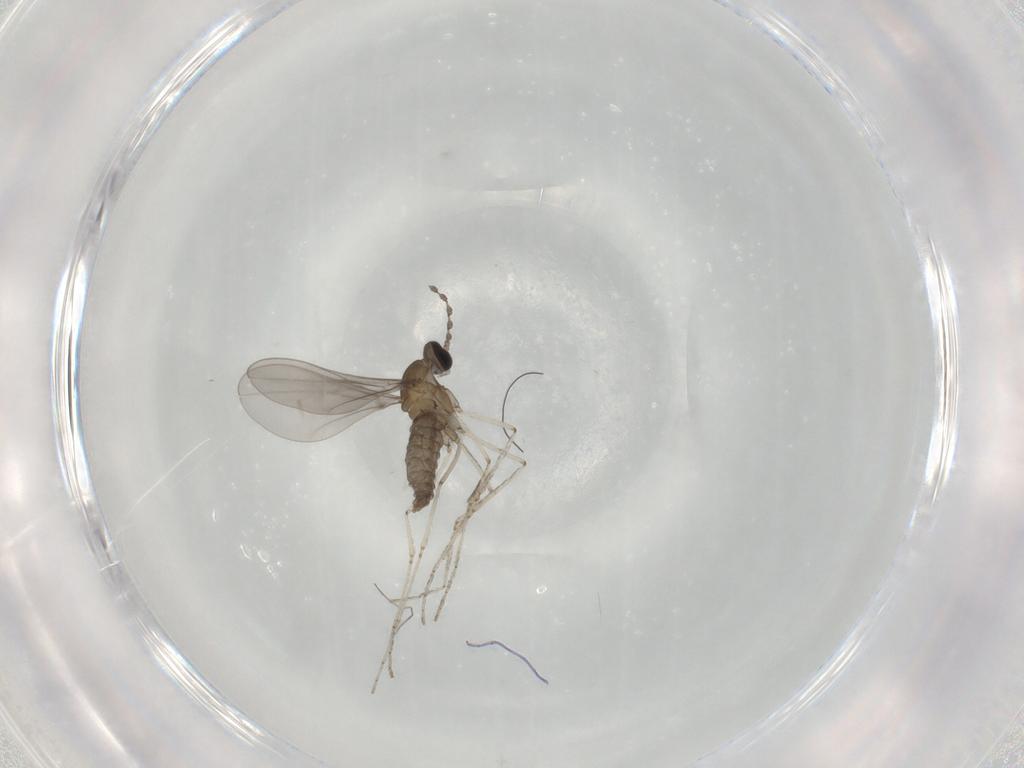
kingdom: Animalia
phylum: Arthropoda
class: Insecta
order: Diptera
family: Cecidomyiidae
